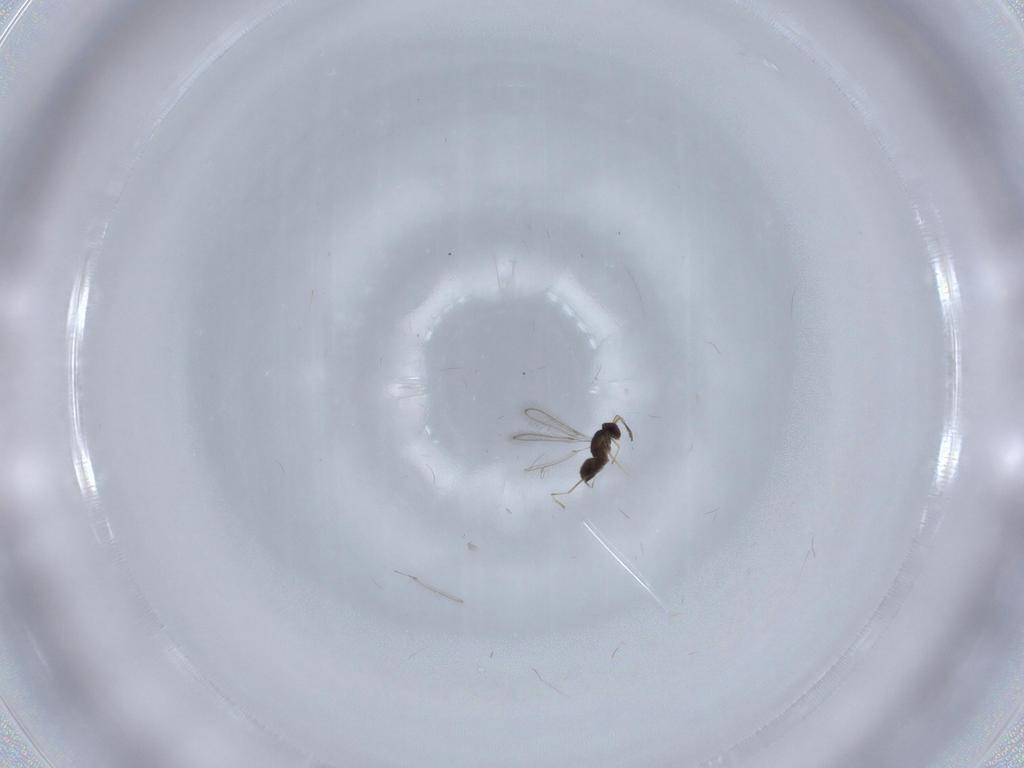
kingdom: Animalia
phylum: Arthropoda
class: Insecta
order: Hymenoptera
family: Mymaridae
